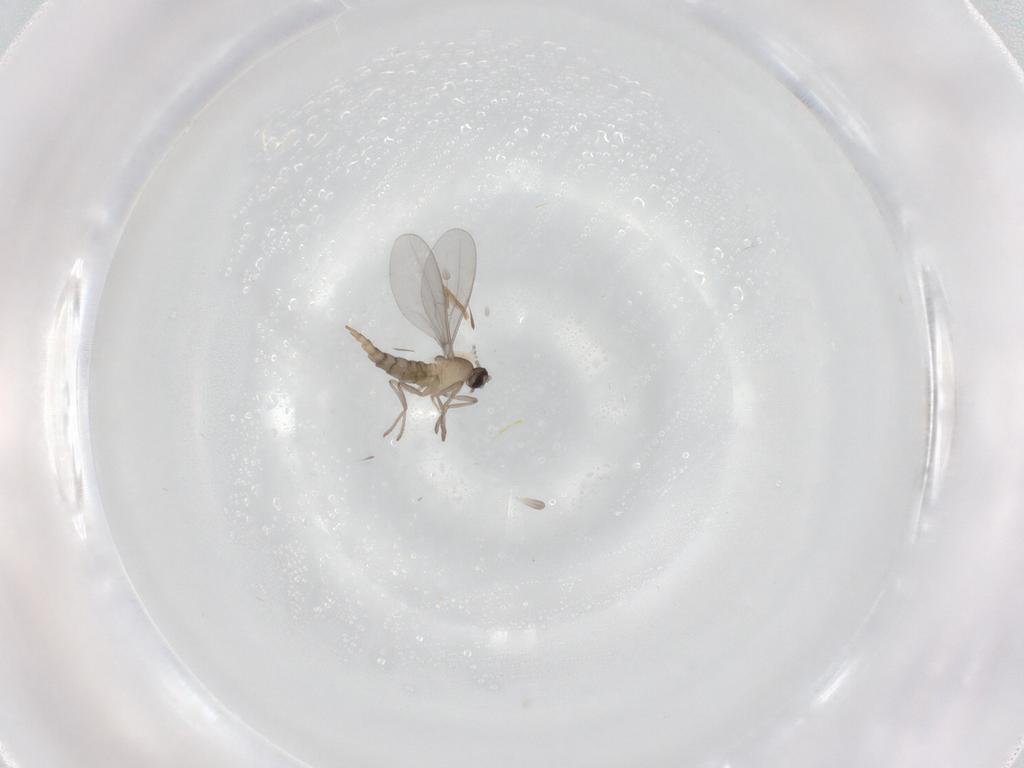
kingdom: Animalia
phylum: Arthropoda
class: Insecta
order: Diptera
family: Cecidomyiidae
